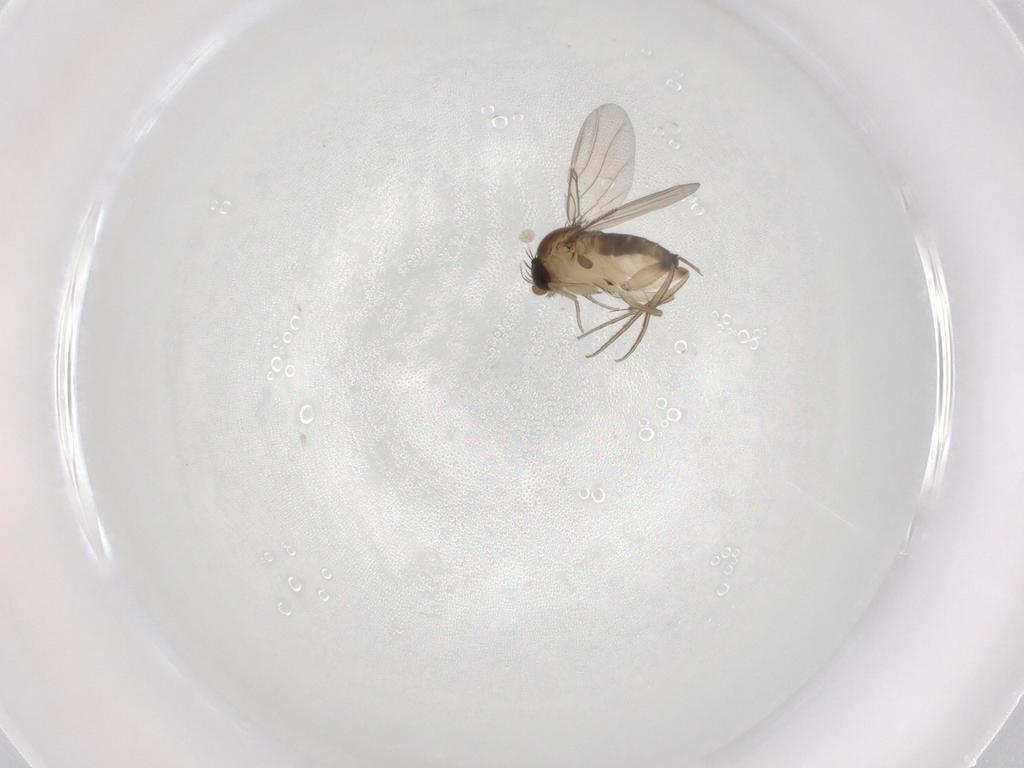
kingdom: Animalia
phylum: Arthropoda
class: Insecta
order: Diptera
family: Phoridae
